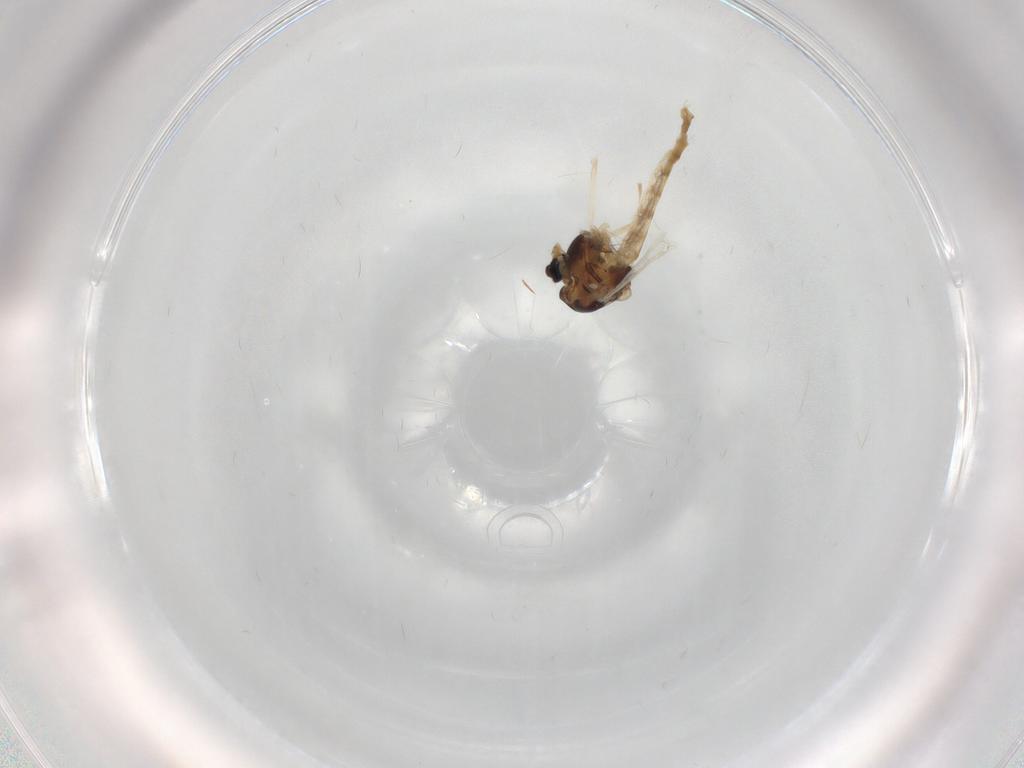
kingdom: Animalia
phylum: Arthropoda
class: Insecta
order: Diptera
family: Chironomidae
